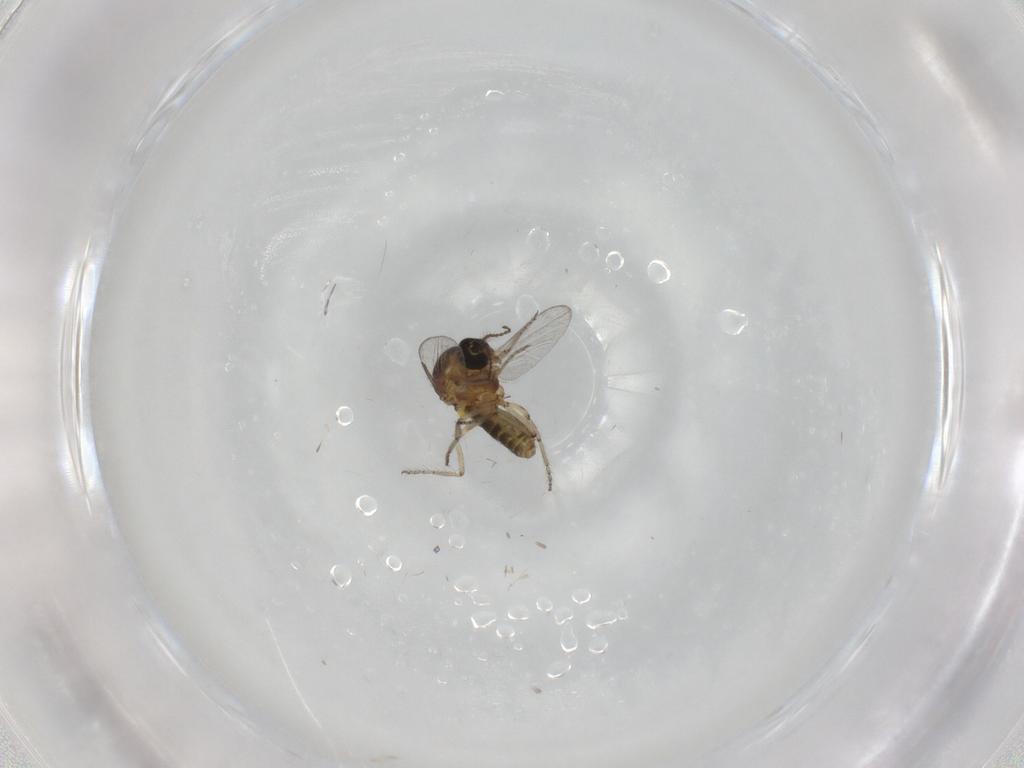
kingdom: Animalia
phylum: Arthropoda
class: Insecta
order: Diptera
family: Ceratopogonidae
